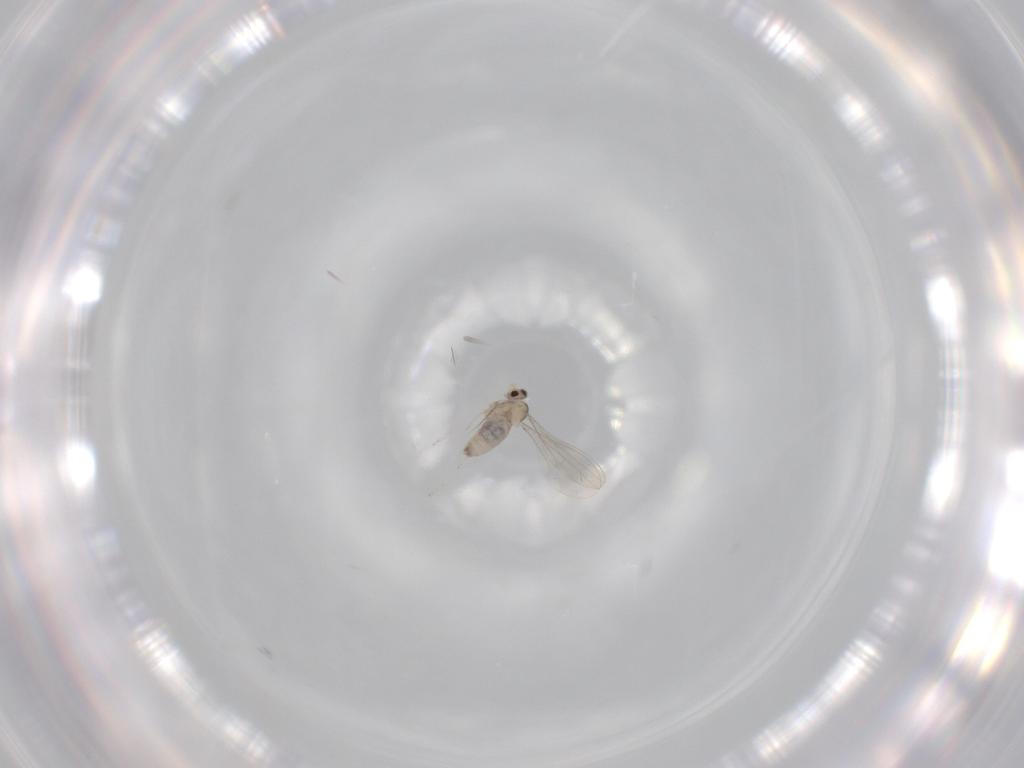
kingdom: Animalia
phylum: Arthropoda
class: Insecta
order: Diptera
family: Cecidomyiidae
